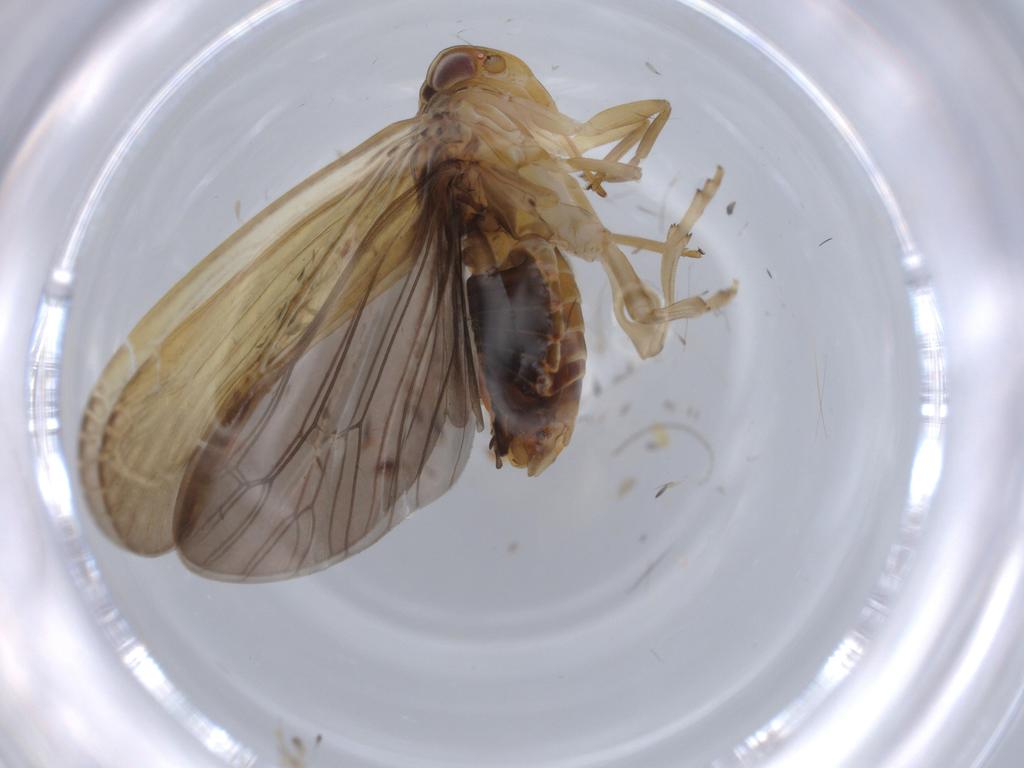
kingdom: Animalia
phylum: Arthropoda
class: Insecta
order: Hemiptera
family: Achilidae
